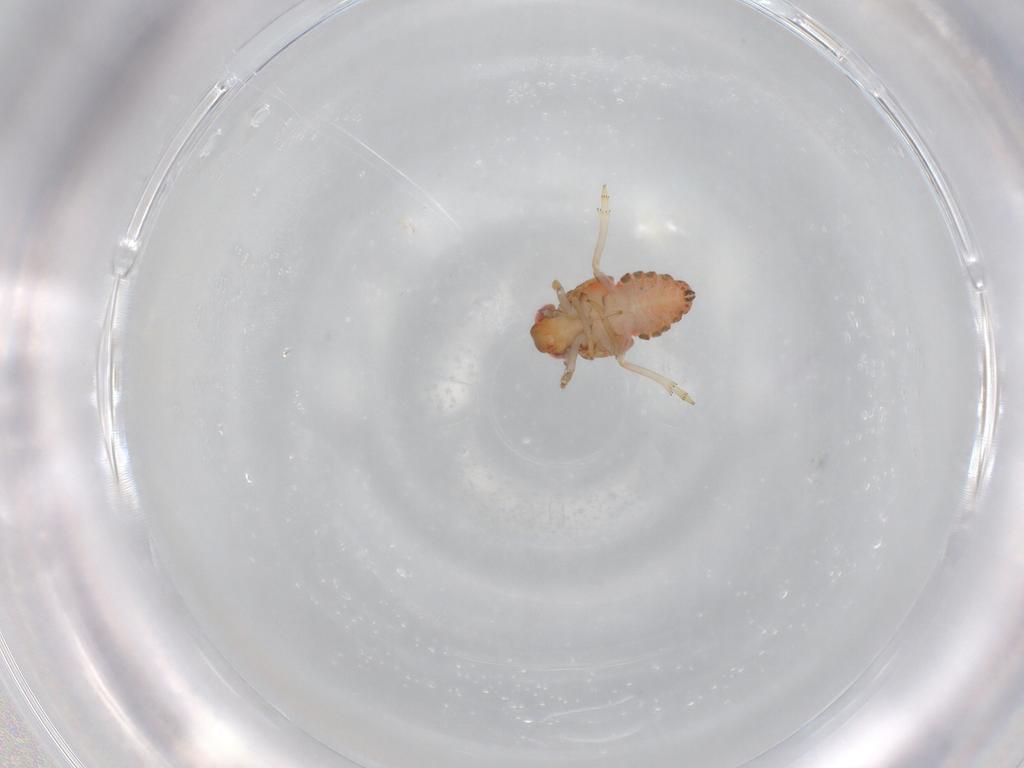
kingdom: Animalia
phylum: Arthropoda
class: Insecta
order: Hemiptera
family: Issidae
